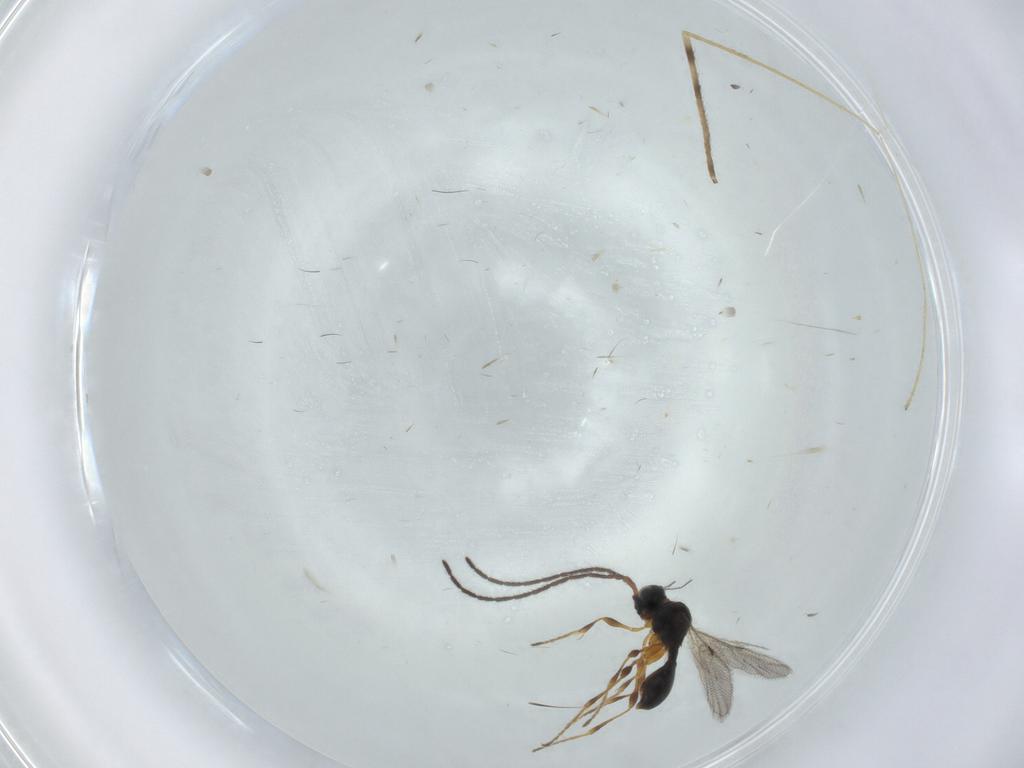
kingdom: Animalia
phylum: Arthropoda
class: Insecta
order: Hymenoptera
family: Diapriidae
